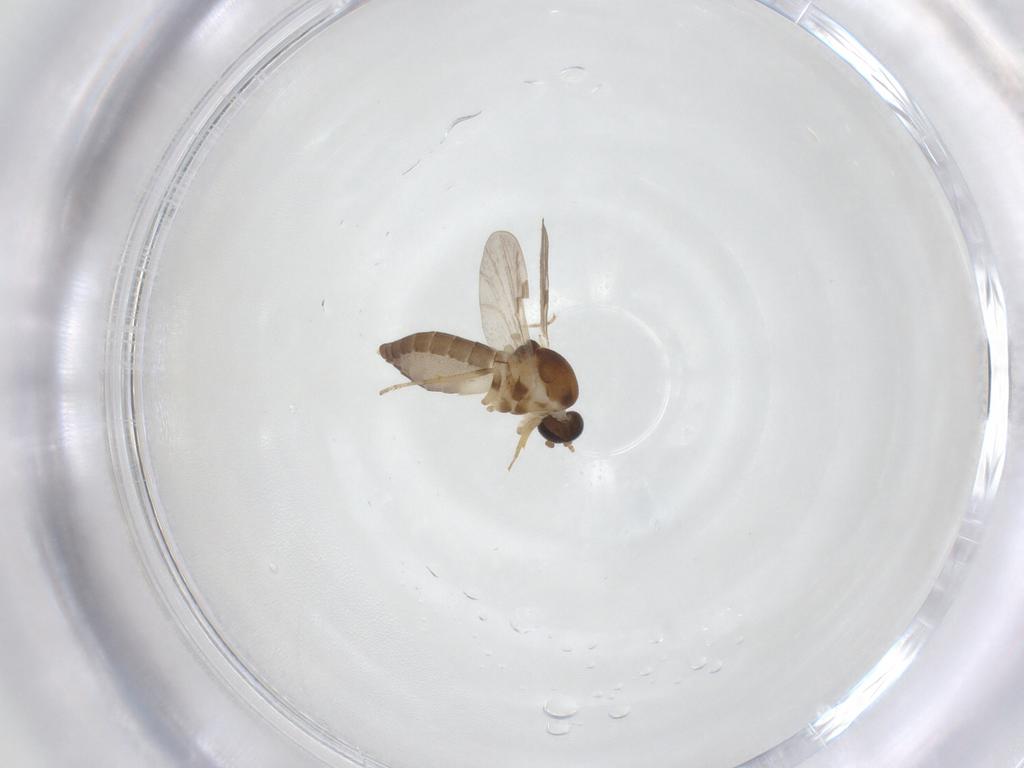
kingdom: Animalia
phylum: Arthropoda
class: Insecta
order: Diptera
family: Ceratopogonidae
